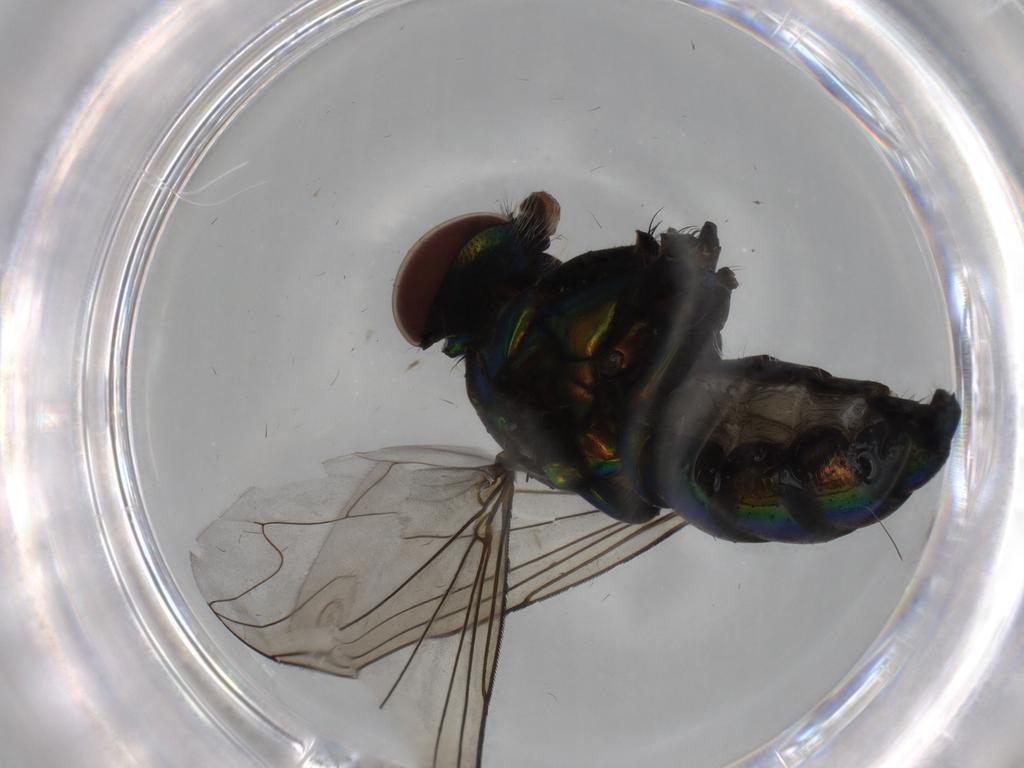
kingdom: Animalia
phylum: Arthropoda
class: Insecta
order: Diptera
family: Dolichopodidae
